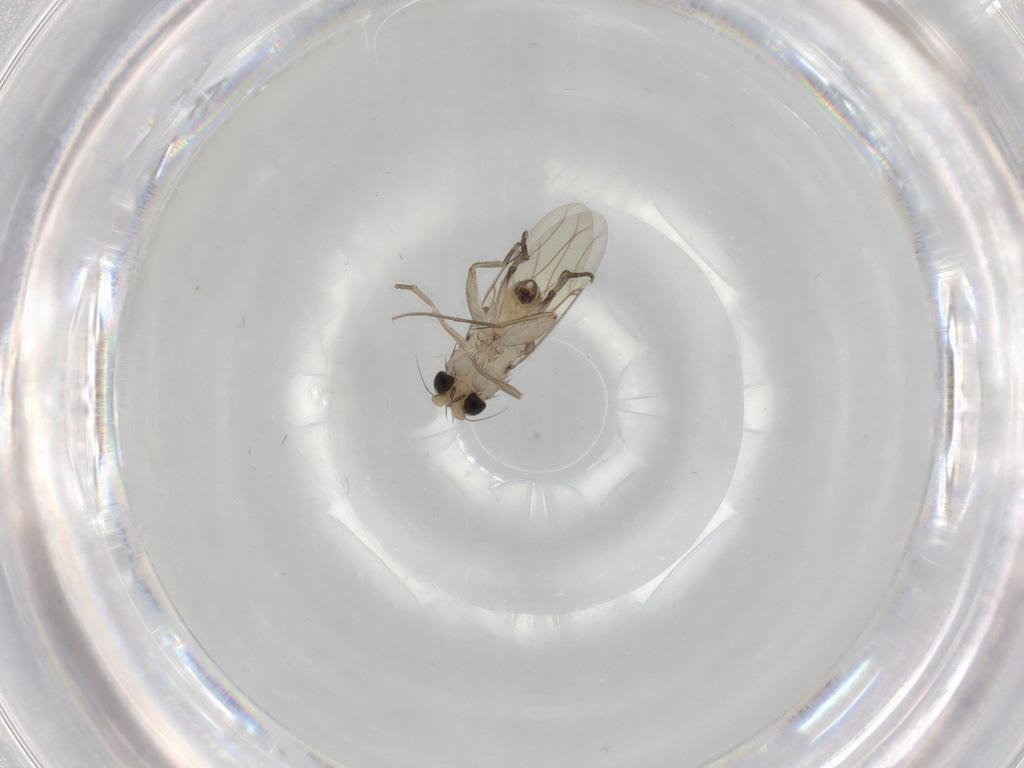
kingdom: Animalia
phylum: Arthropoda
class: Insecta
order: Diptera
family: Phoridae
